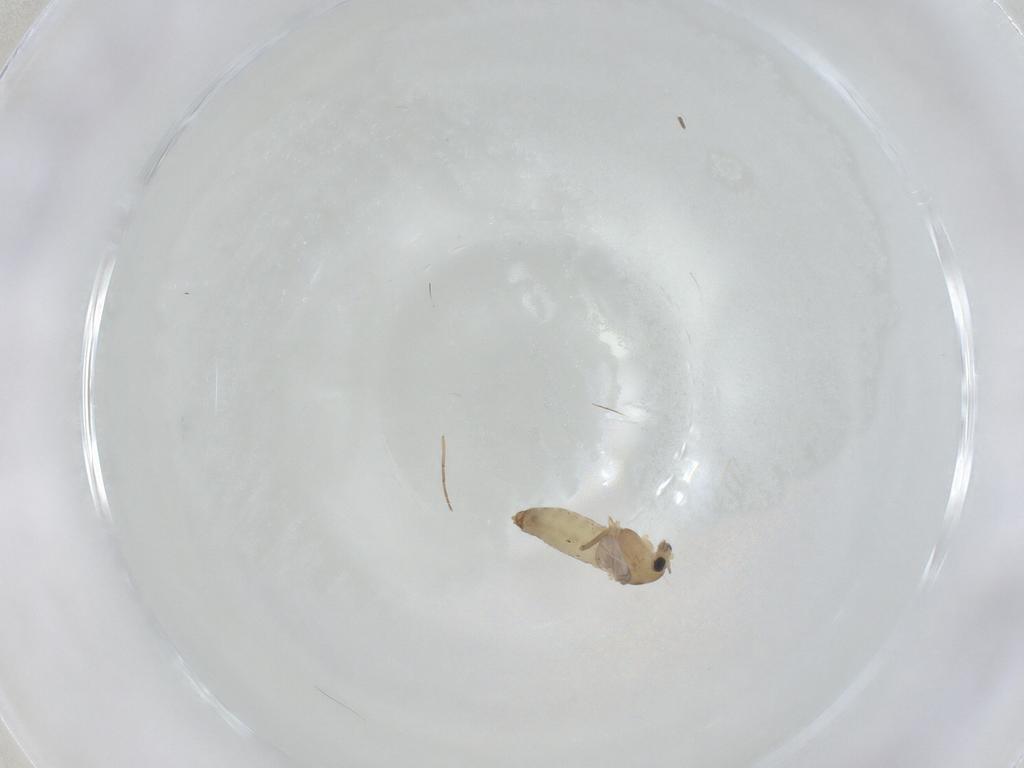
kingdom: Animalia
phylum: Arthropoda
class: Insecta
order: Diptera
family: Chironomidae
